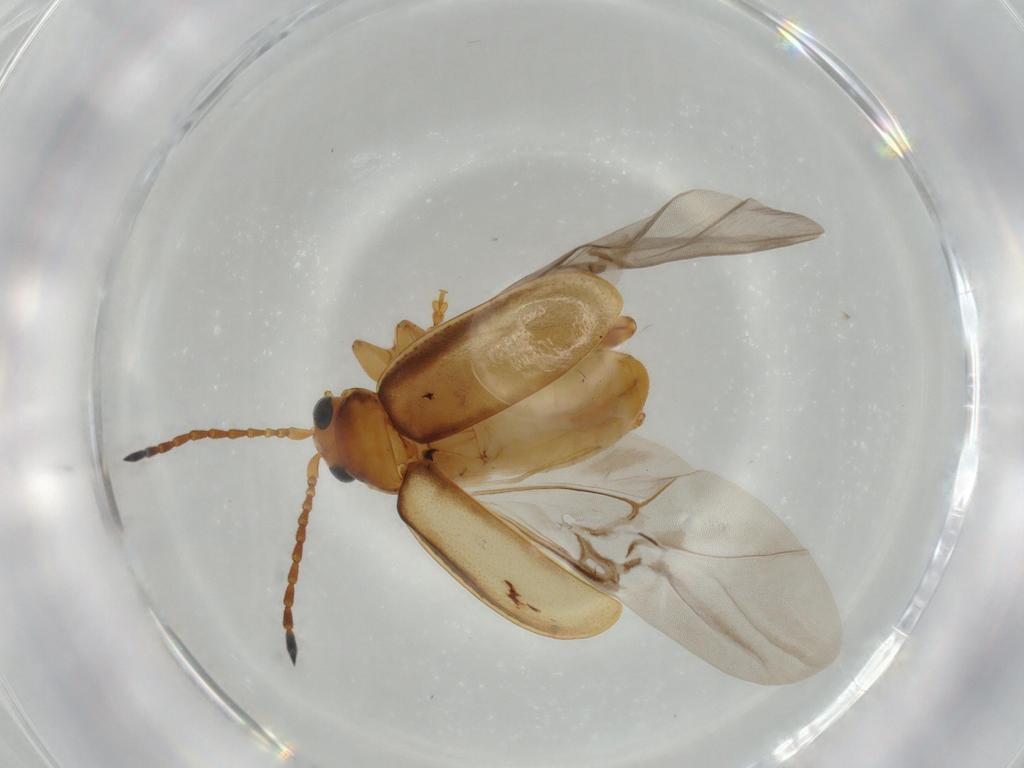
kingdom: Animalia
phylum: Arthropoda
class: Insecta
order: Coleoptera
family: Chrysomelidae
